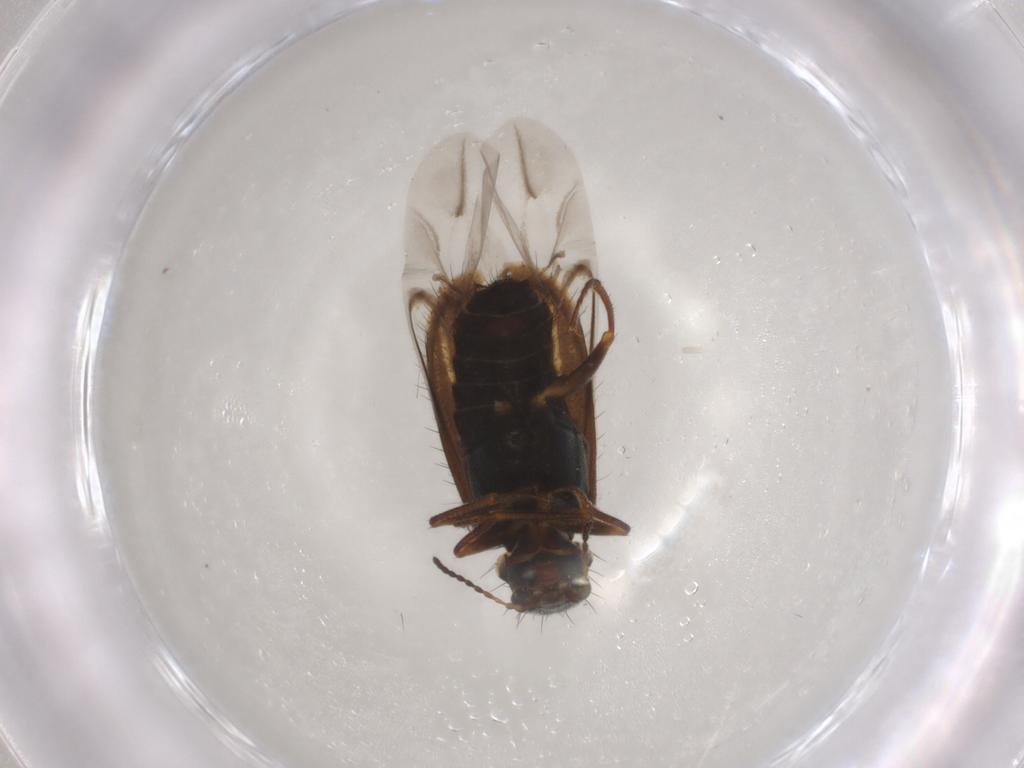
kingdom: Animalia
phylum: Arthropoda
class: Insecta
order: Coleoptera
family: Melyridae
